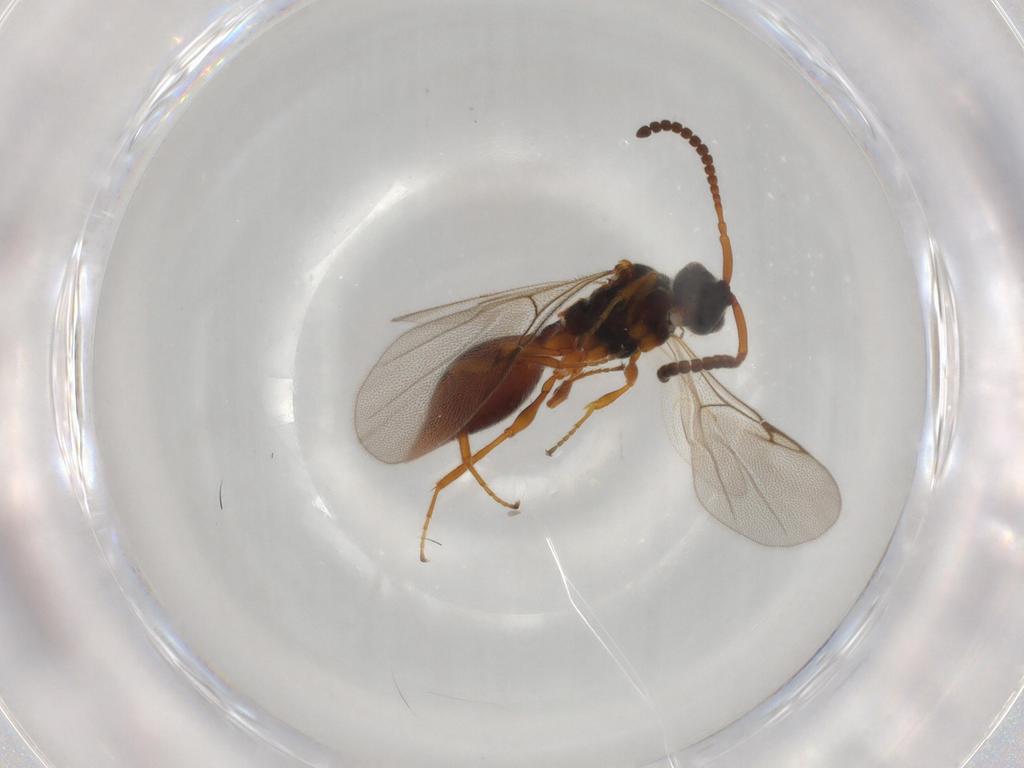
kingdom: Animalia
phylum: Arthropoda
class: Insecta
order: Hymenoptera
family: Diapriidae
